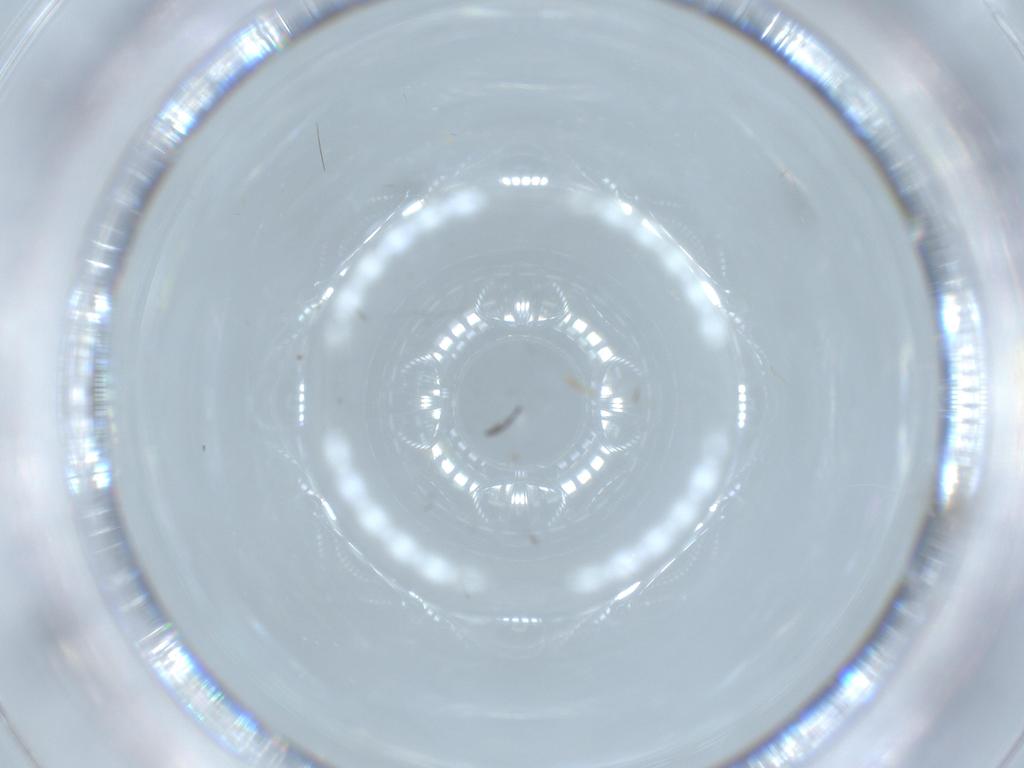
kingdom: Animalia
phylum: Arthropoda
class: Insecta
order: Diptera
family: Chironomidae
